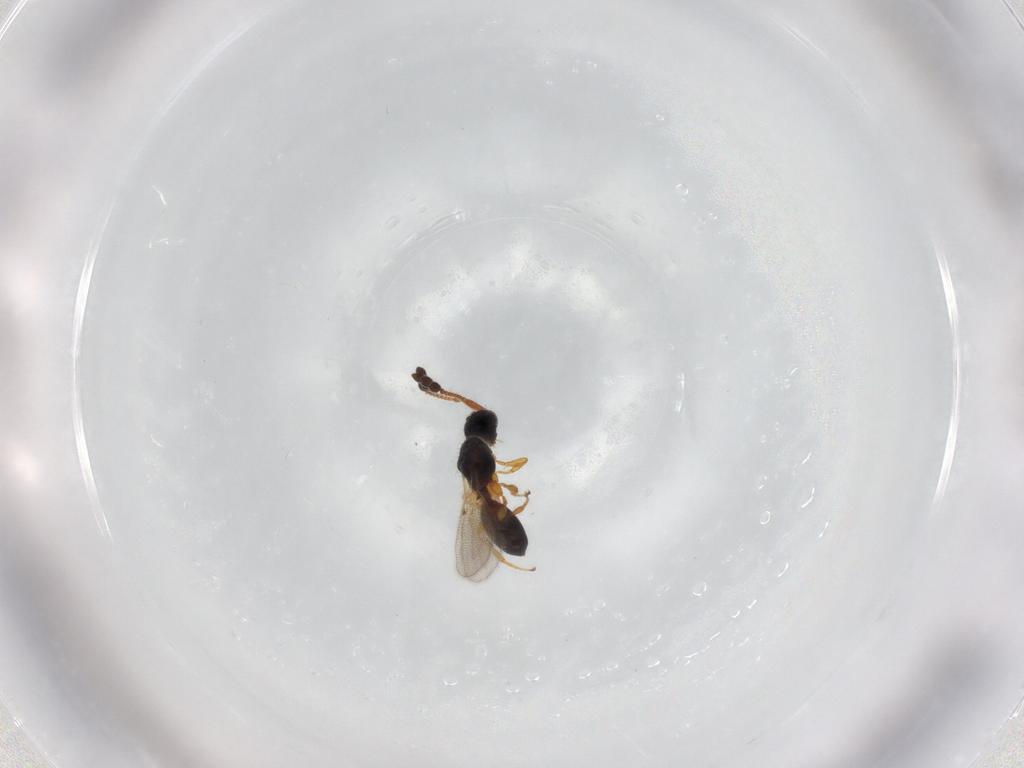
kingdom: Animalia
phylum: Arthropoda
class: Insecta
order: Hymenoptera
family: Diapriidae
